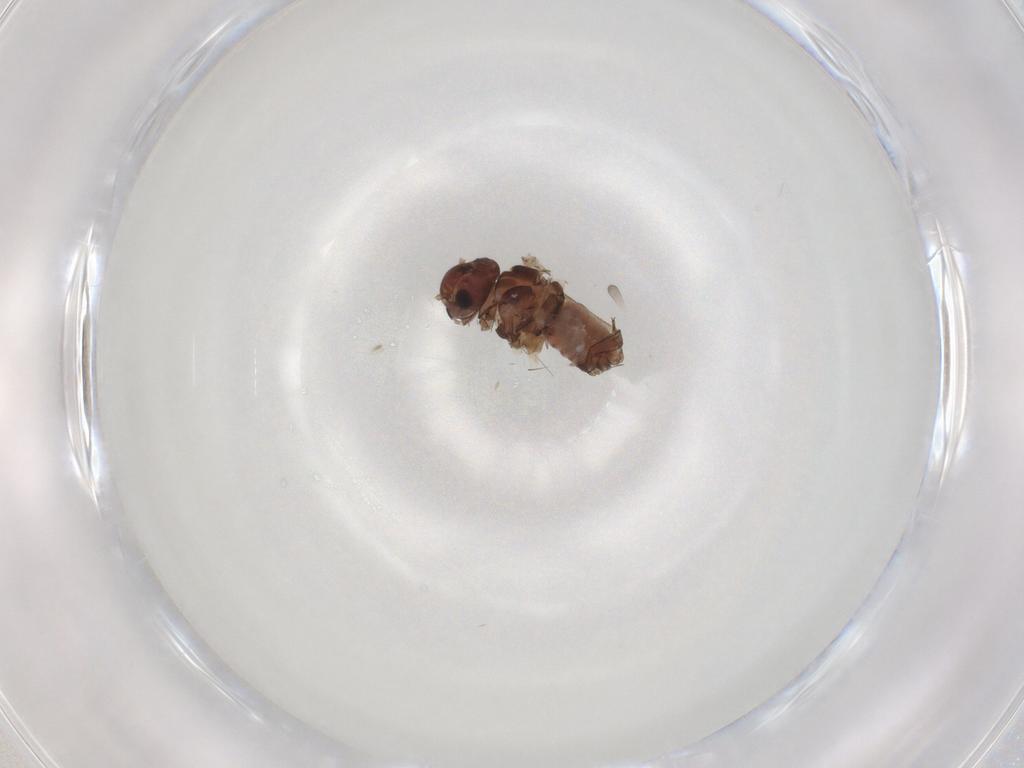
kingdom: Animalia
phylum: Arthropoda
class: Insecta
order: Psocodea
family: Peripsocidae
